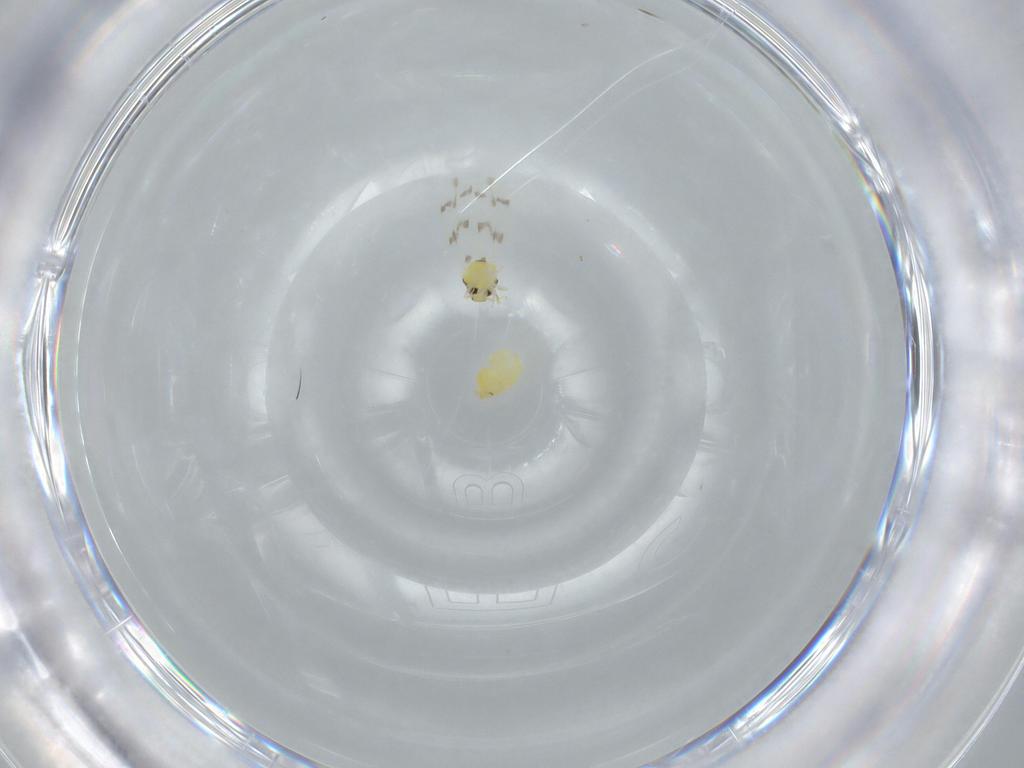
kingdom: Animalia
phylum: Arthropoda
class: Insecta
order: Hemiptera
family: Aleyrodidae
